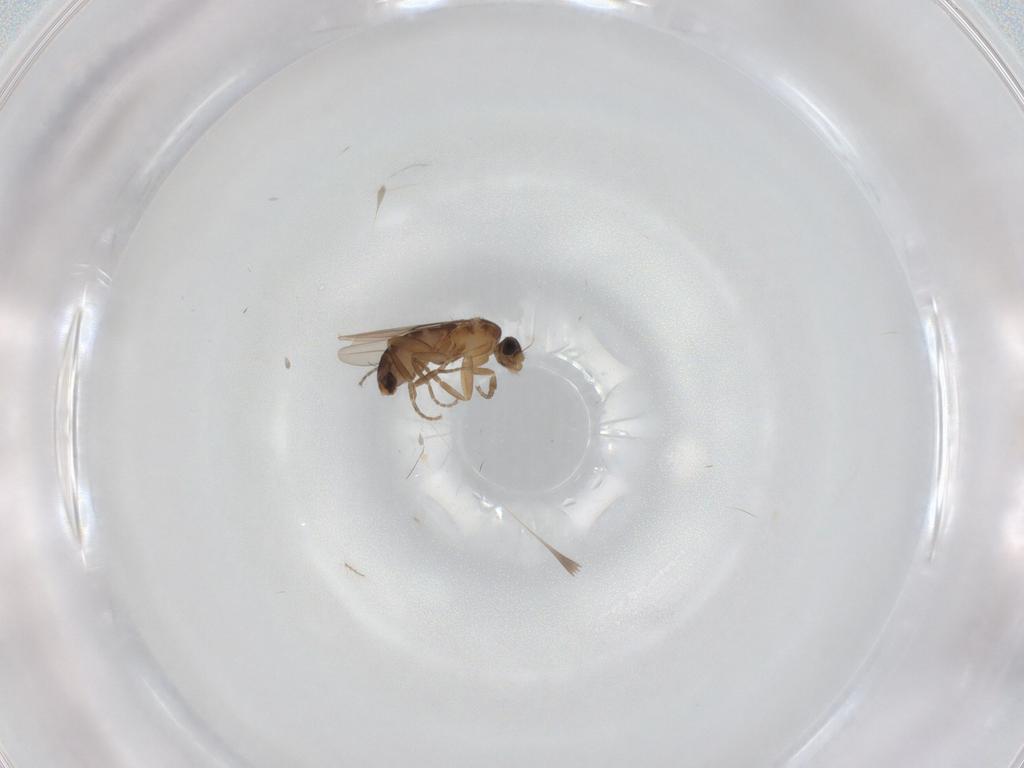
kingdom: Animalia
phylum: Arthropoda
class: Insecta
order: Diptera
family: Phoridae
